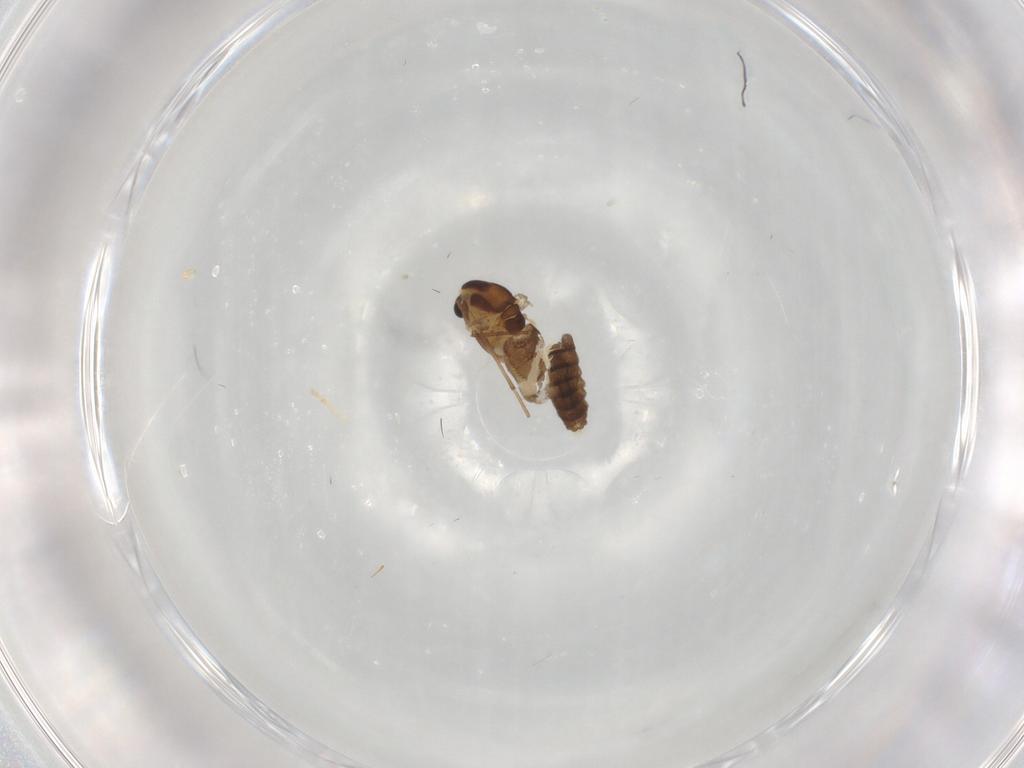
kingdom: Animalia
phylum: Arthropoda
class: Insecta
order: Diptera
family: Chironomidae
